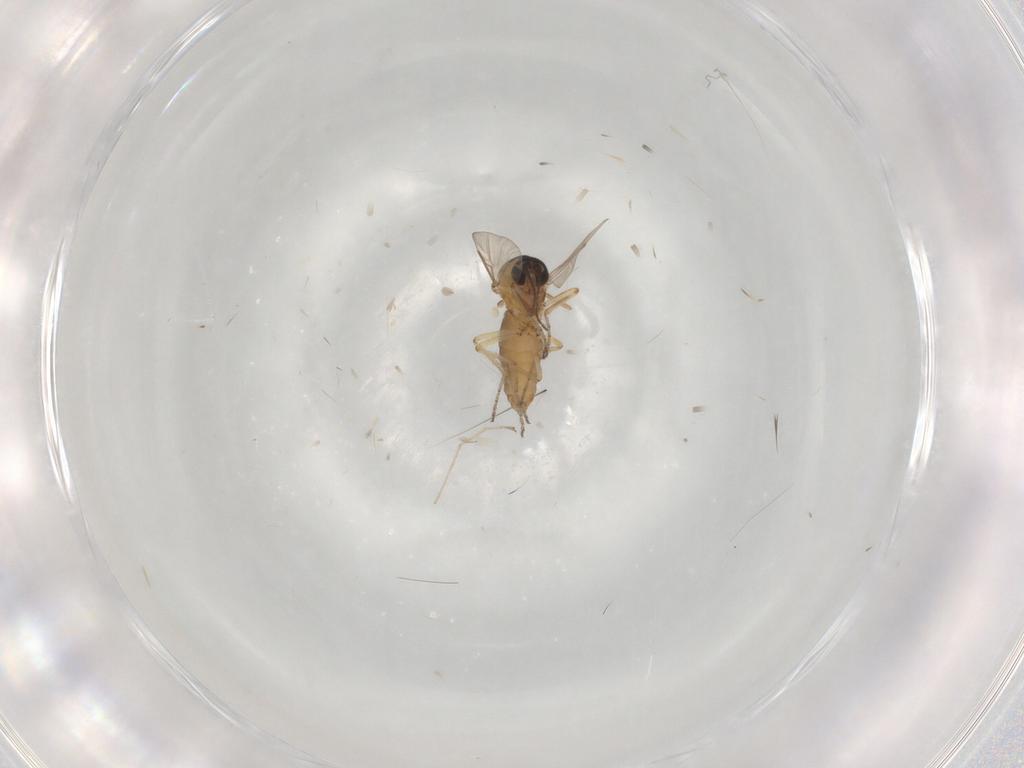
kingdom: Animalia
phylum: Arthropoda
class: Insecta
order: Diptera
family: Ceratopogonidae
